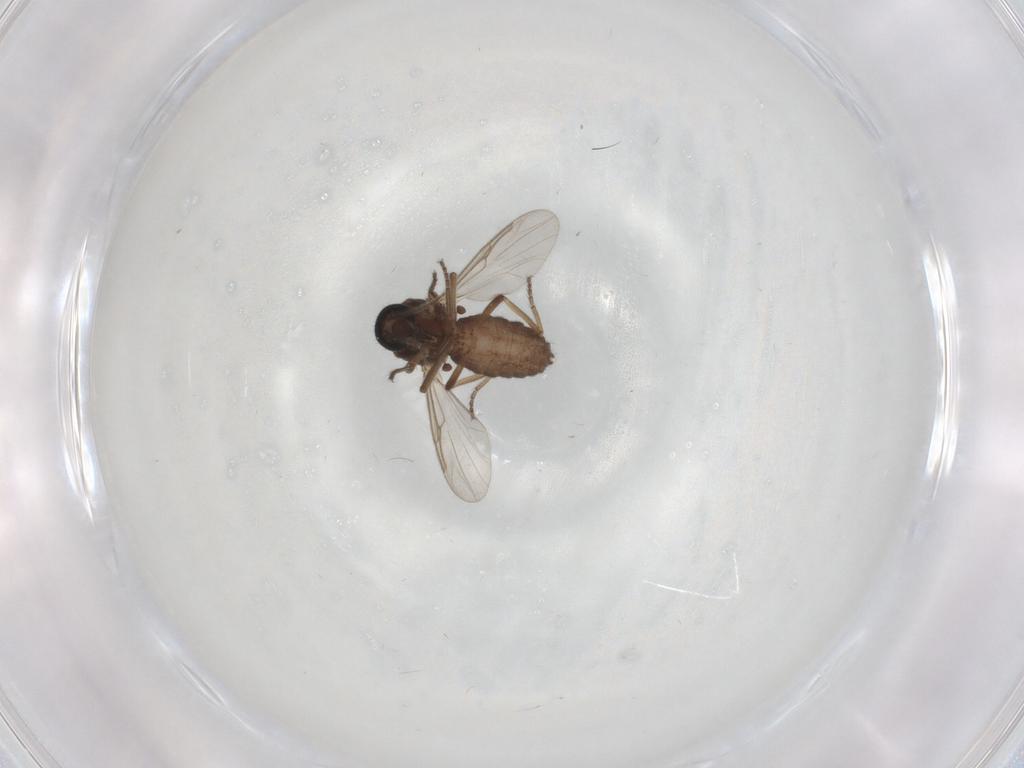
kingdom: Animalia
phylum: Arthropoda
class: Insecta
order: Diptera
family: Ceratopogonidae
